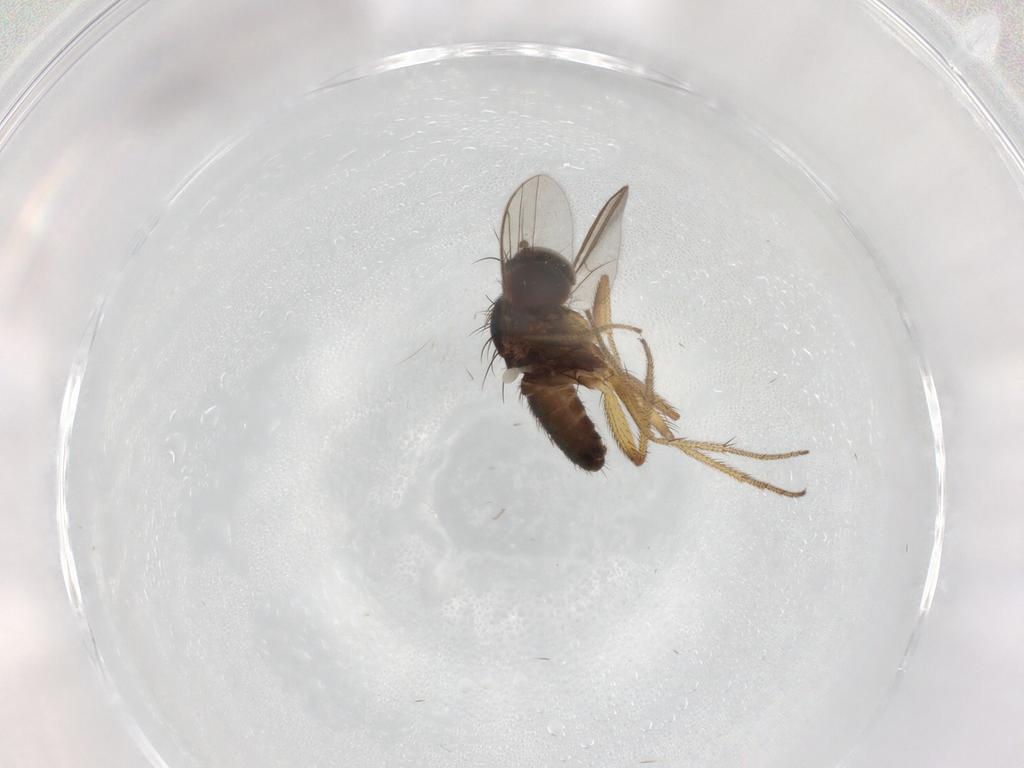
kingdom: Animalia
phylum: Arthropoda
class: Insecta
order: Diptera
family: Dolichopodidae
